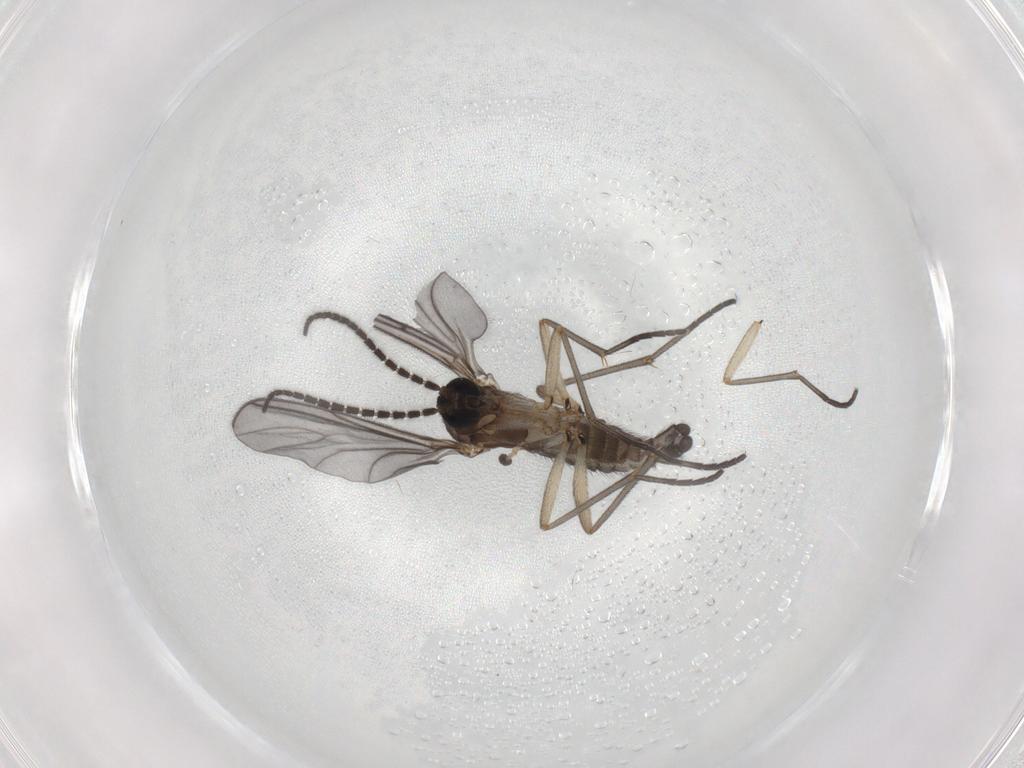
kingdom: Animalia
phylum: Arthropoda
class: Insecta
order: Diptera
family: Sciaridae
